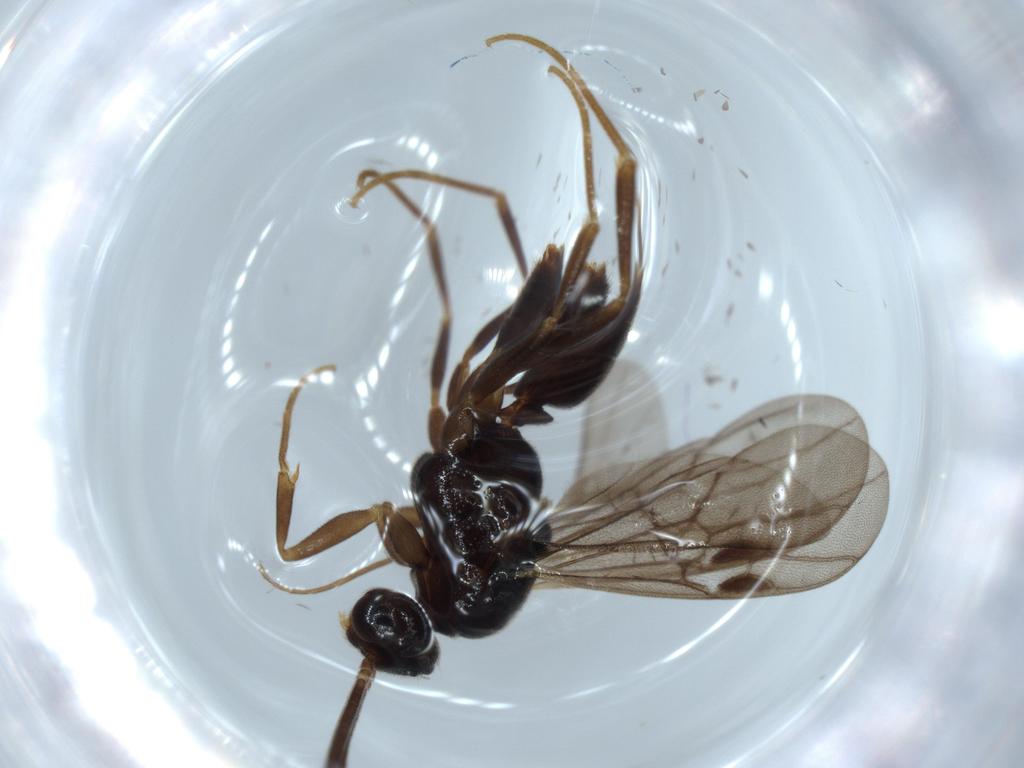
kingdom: Animalia
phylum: Arthropoda
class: Insecta
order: Hymenoptera
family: Formicidae
